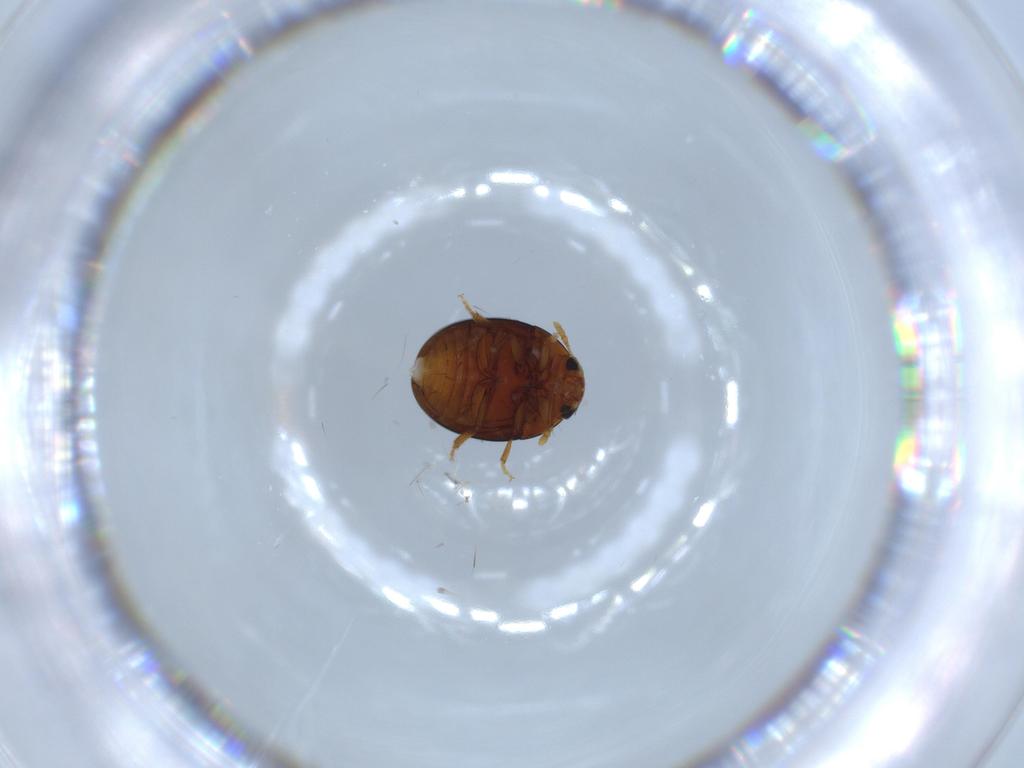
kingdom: Animalia
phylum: Arthropoda
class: Insecta
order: Coleoptera
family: Phalacridae
